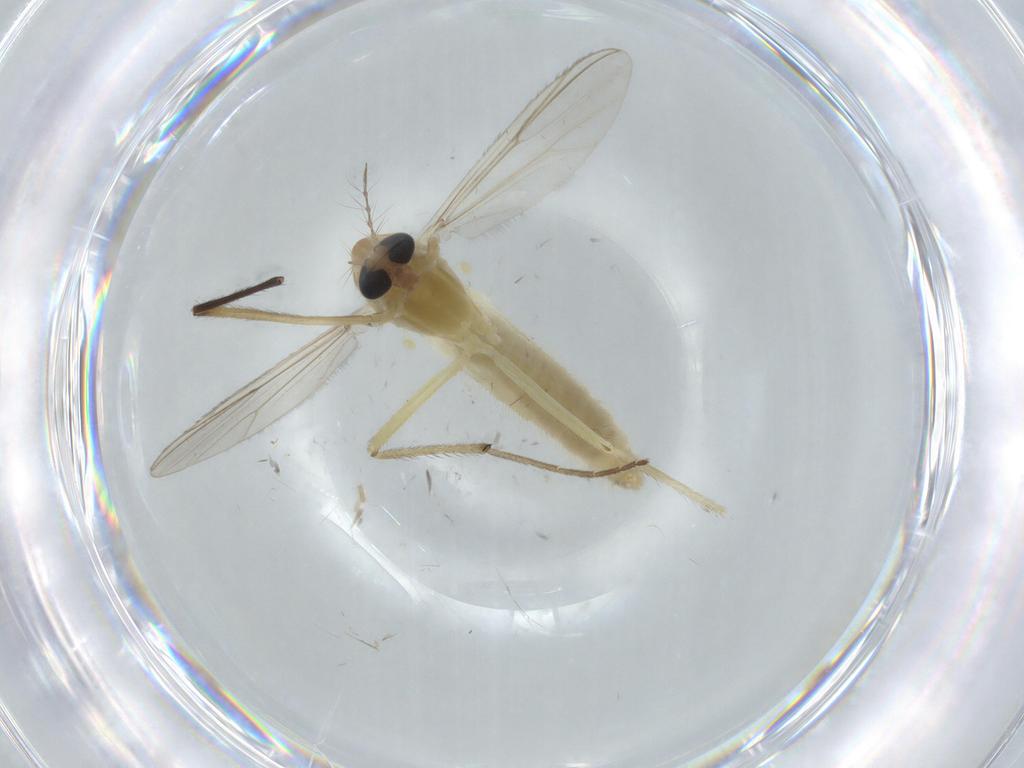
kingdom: Animalia
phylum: Arthropoda
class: Insecta
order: Diptera
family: Chironomidae
